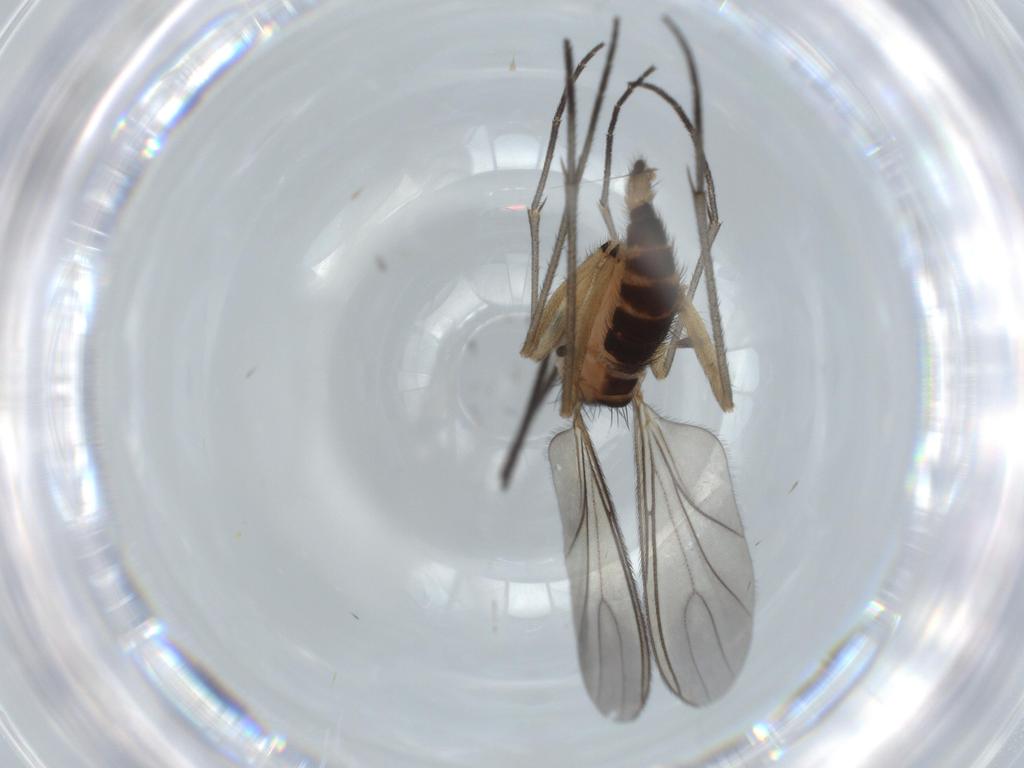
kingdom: Animalia
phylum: Arthropoda
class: Insecta
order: Diptera
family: Sciaridae
